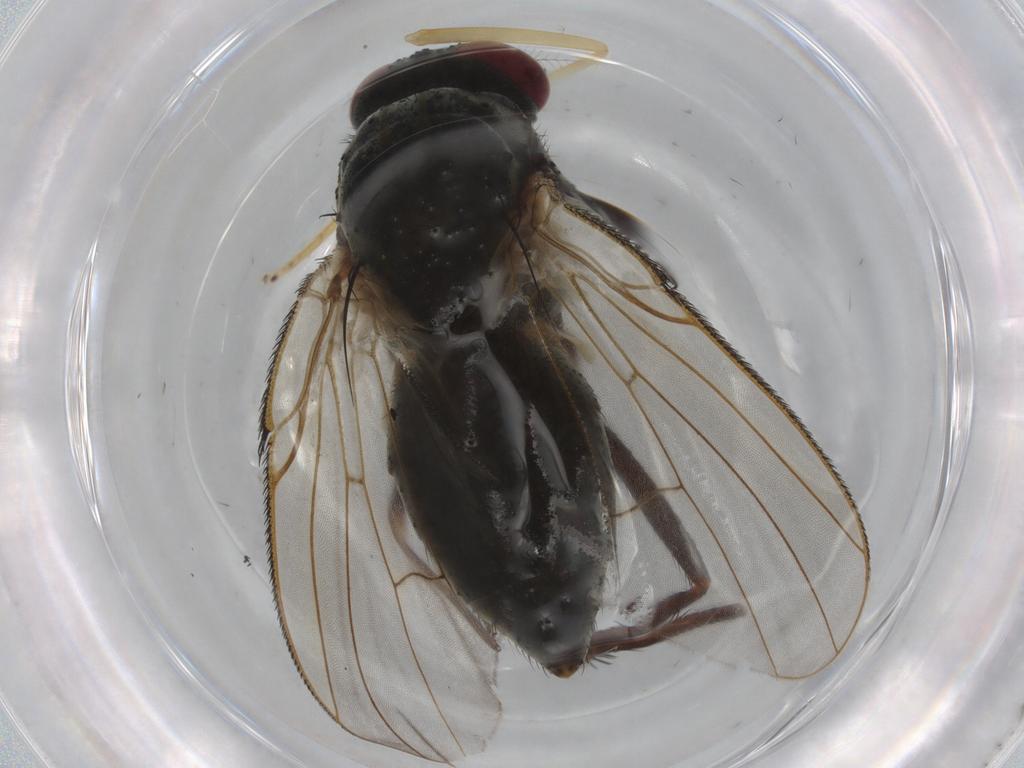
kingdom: Animalia
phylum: Arthropoda
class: Insecta
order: Diptera
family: Muscidae
